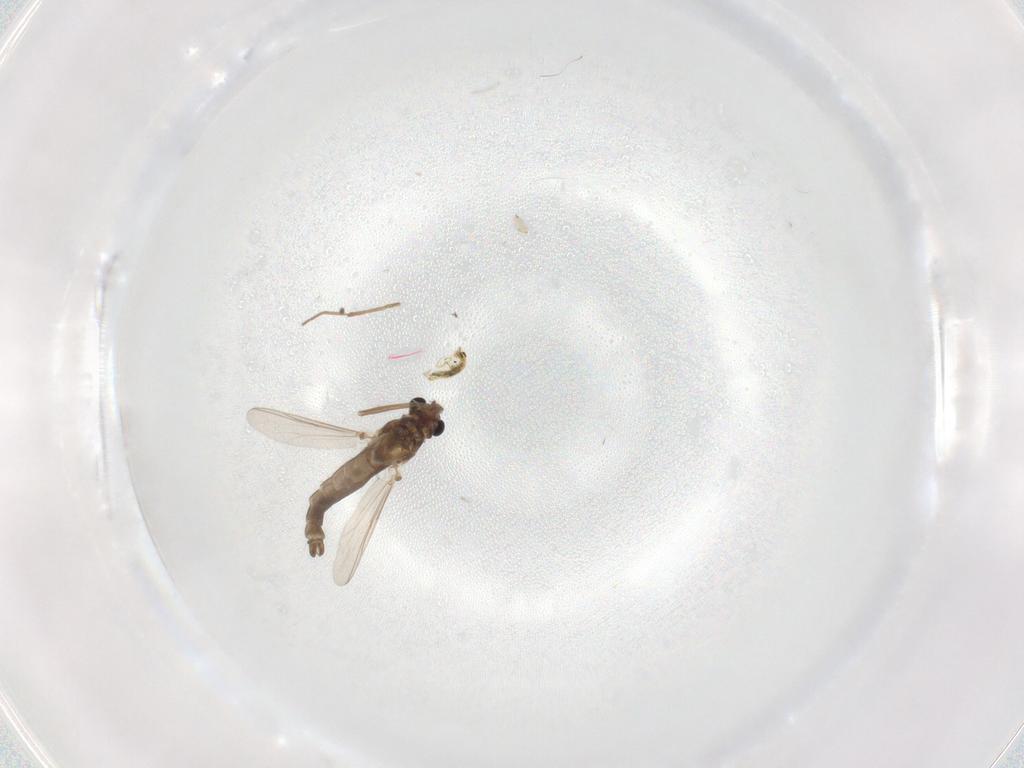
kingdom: Animalia
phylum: Arthropoda
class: Insecta
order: Diptera
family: Chironomidae
